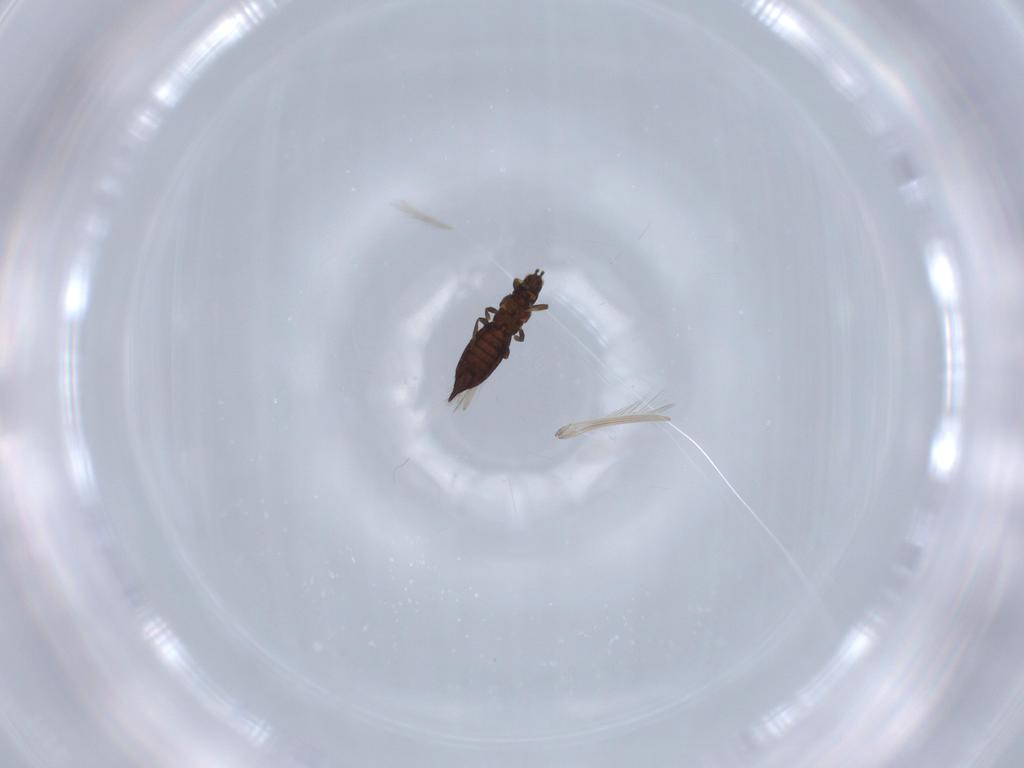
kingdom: Animalia
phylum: Arthropoda
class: Insecta
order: Thysanoptera
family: Thripidae
